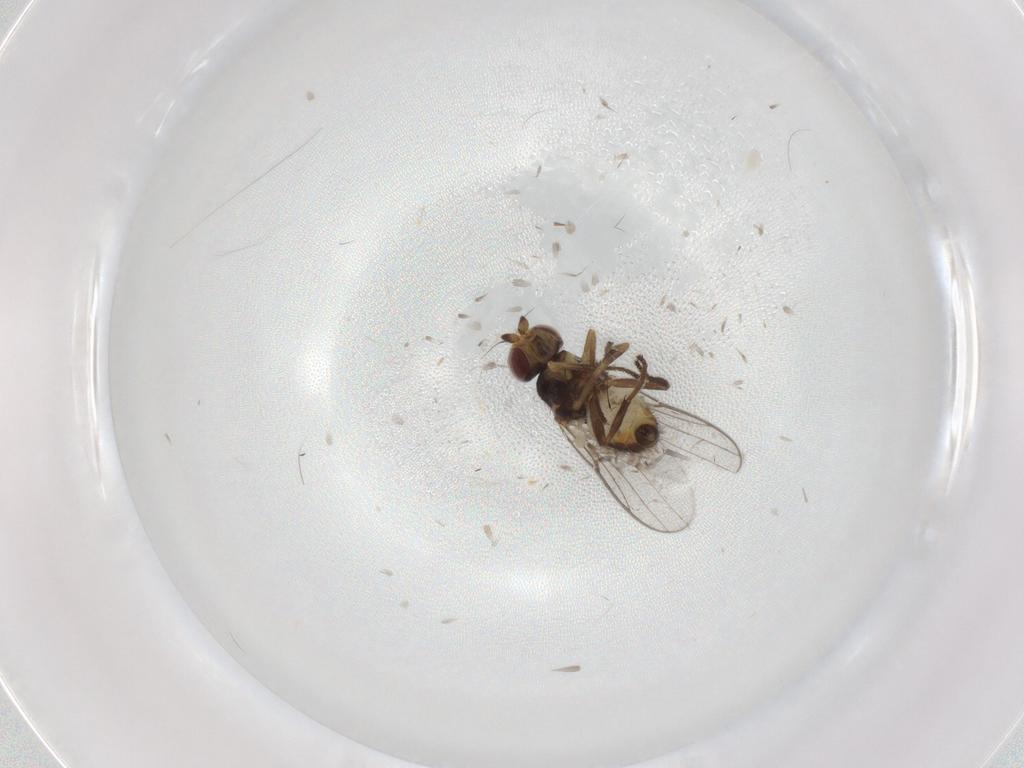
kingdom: Animalia
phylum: Arthropoda
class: Insecta
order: Diptera
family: Chloropidae
